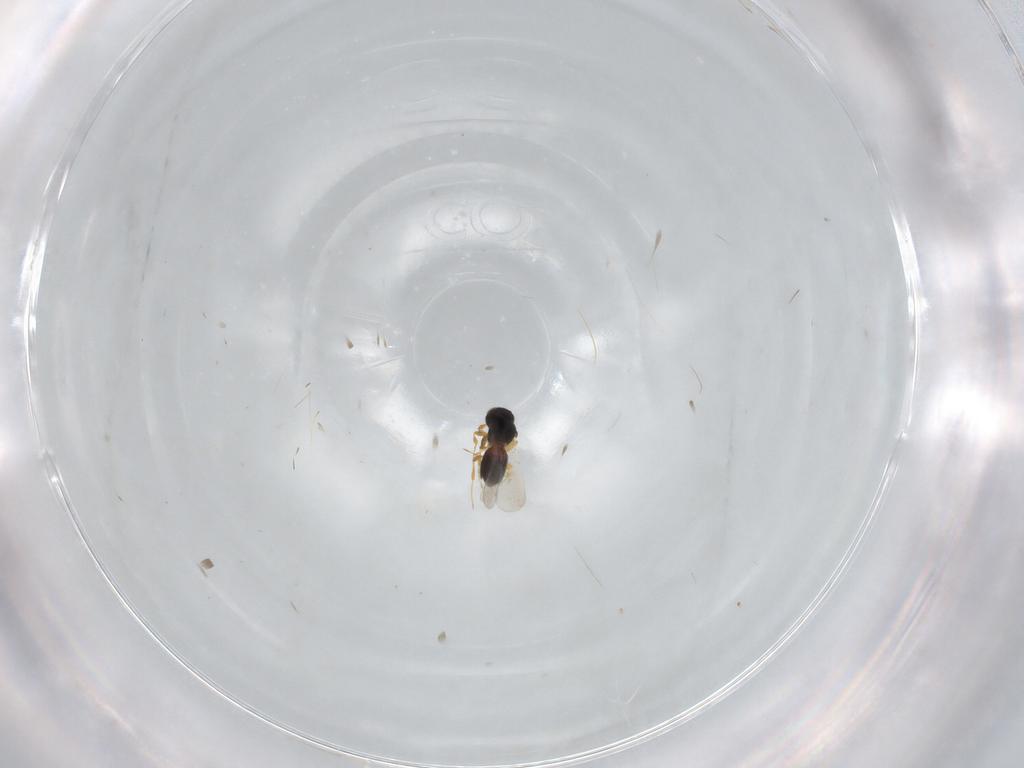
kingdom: Animalia
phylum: Arthropoda
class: Insecta
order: Hymenoptera
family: Platygastridae
